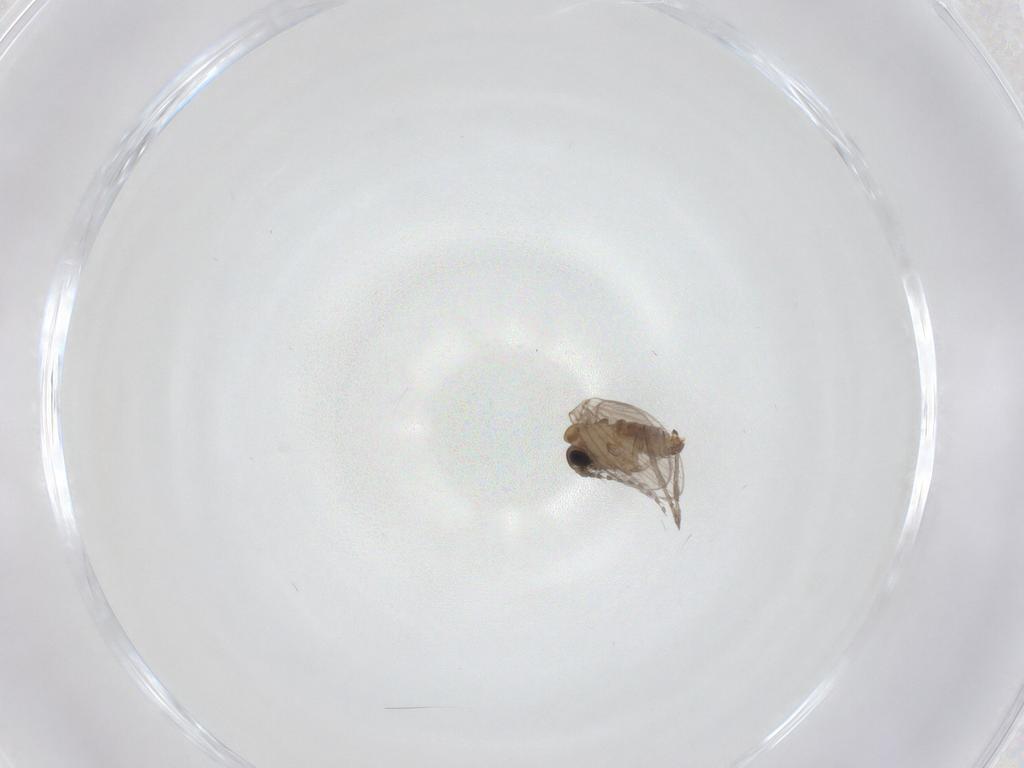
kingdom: Animalia
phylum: Arthropoda
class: Insecta
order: Diptera
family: Psychodidae
